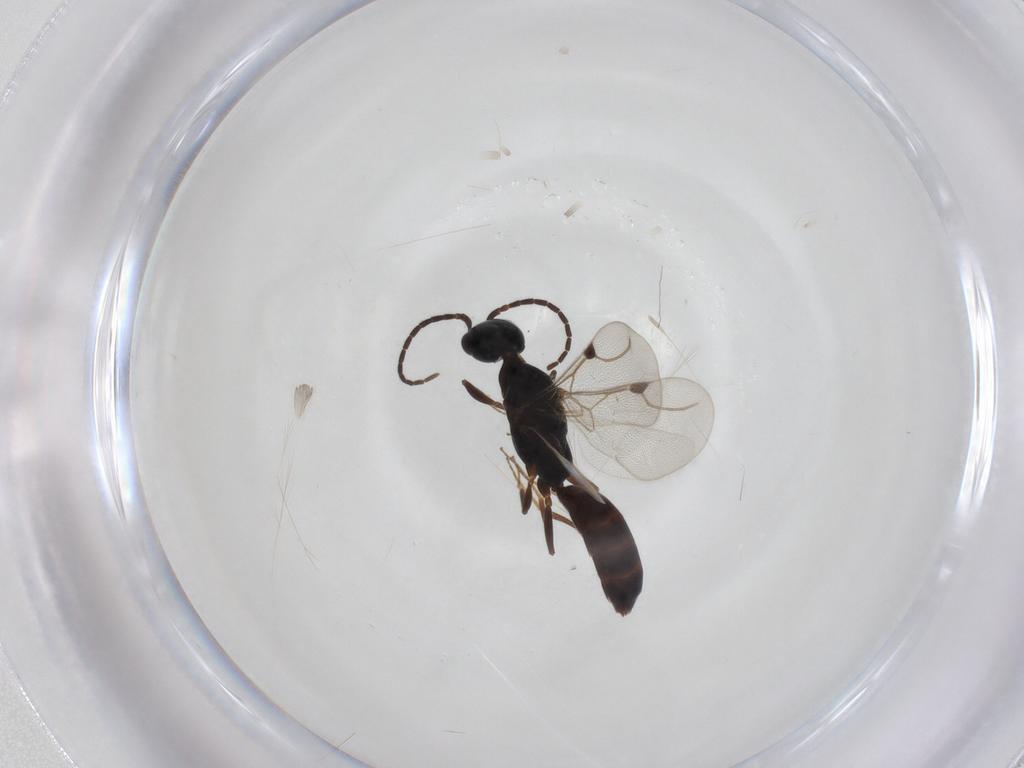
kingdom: Animalia
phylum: Arthropoda
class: Insecta
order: Hymenoptera
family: Bethylidae
